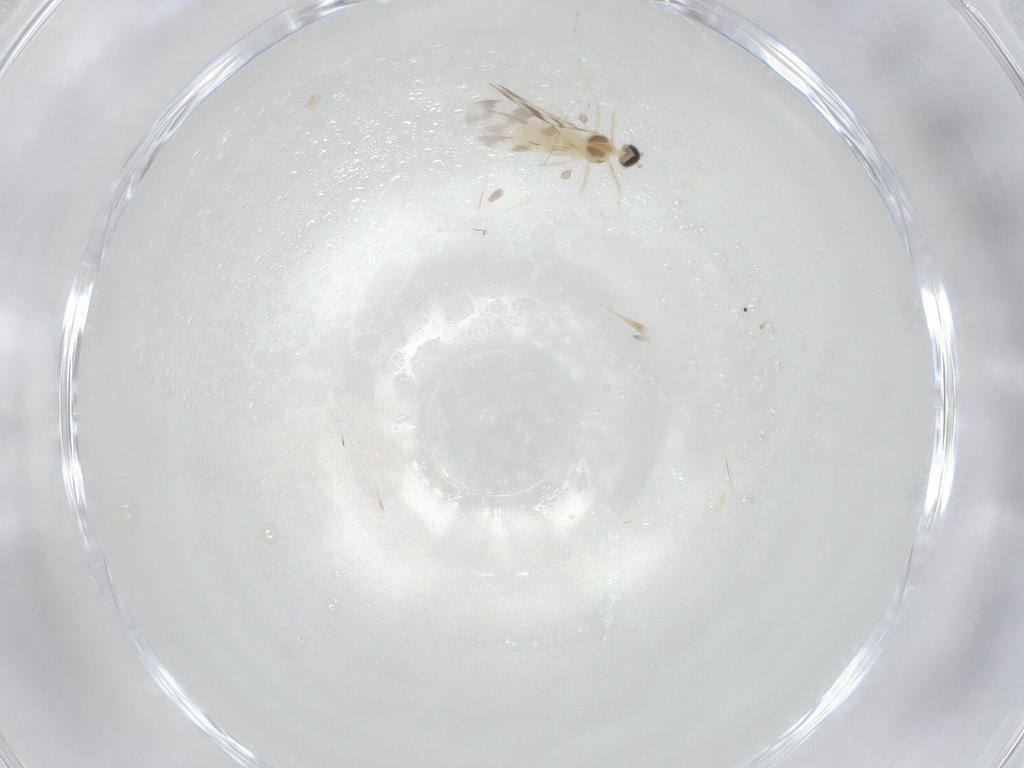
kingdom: Animalia
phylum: Arthropoda
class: Insecta
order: Diptera
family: Cecidomyiidae
